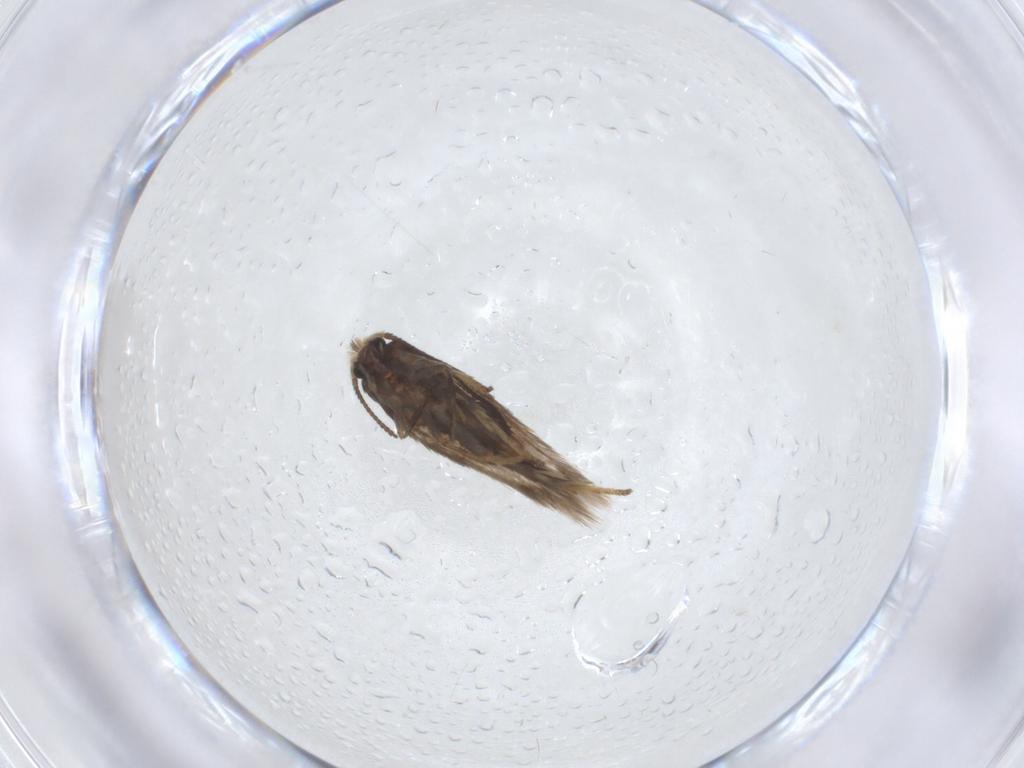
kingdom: Animalia
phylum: Arthropoda
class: Insecta
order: Lepidoptera
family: Nepticulidae
